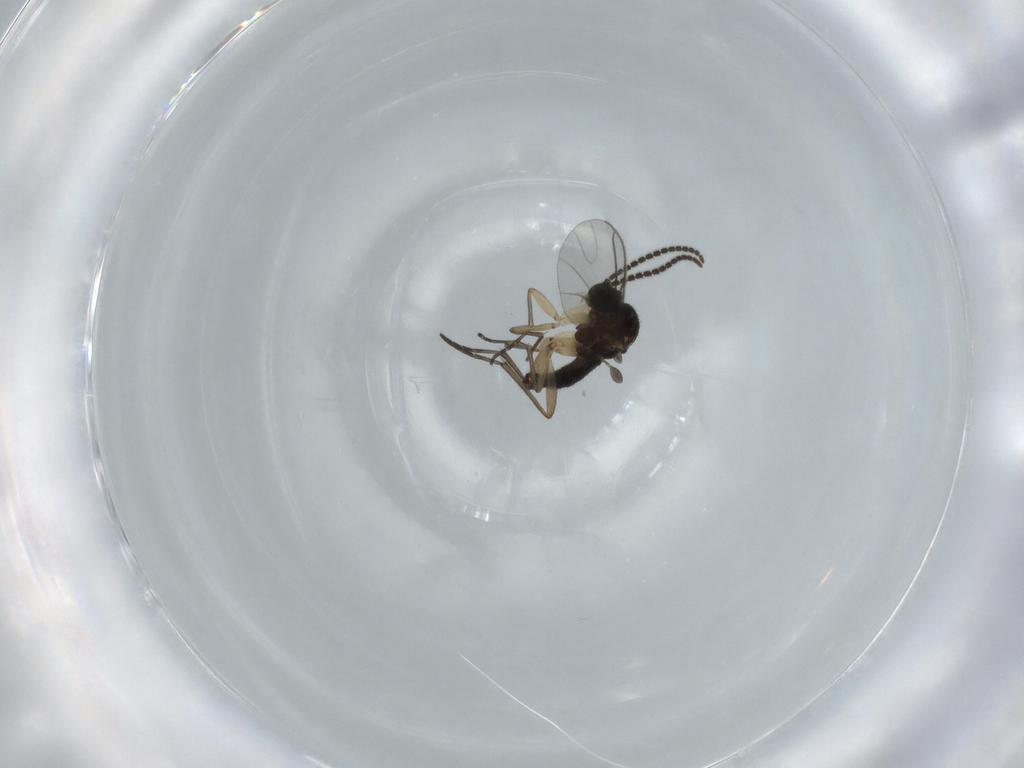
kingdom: Animalia
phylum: Arthropoda
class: Insecta
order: Diptera
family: Sciaridae
